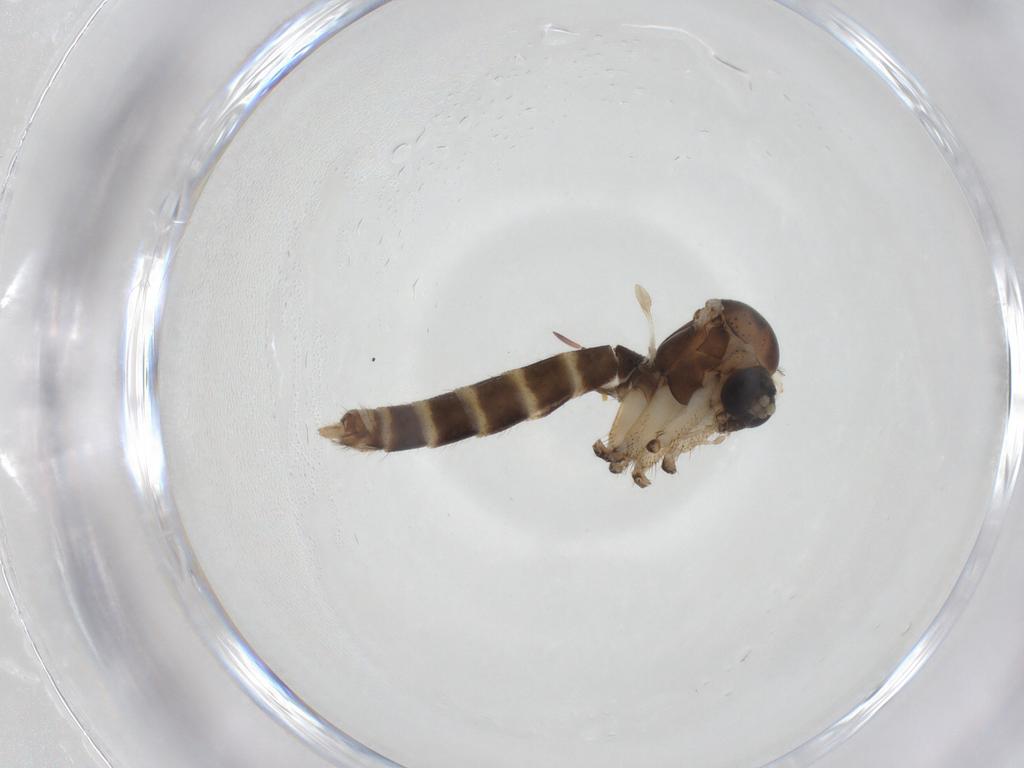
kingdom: Animalia
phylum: Arthropoda
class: Insecta
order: Diptera
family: Mycetophilidae
